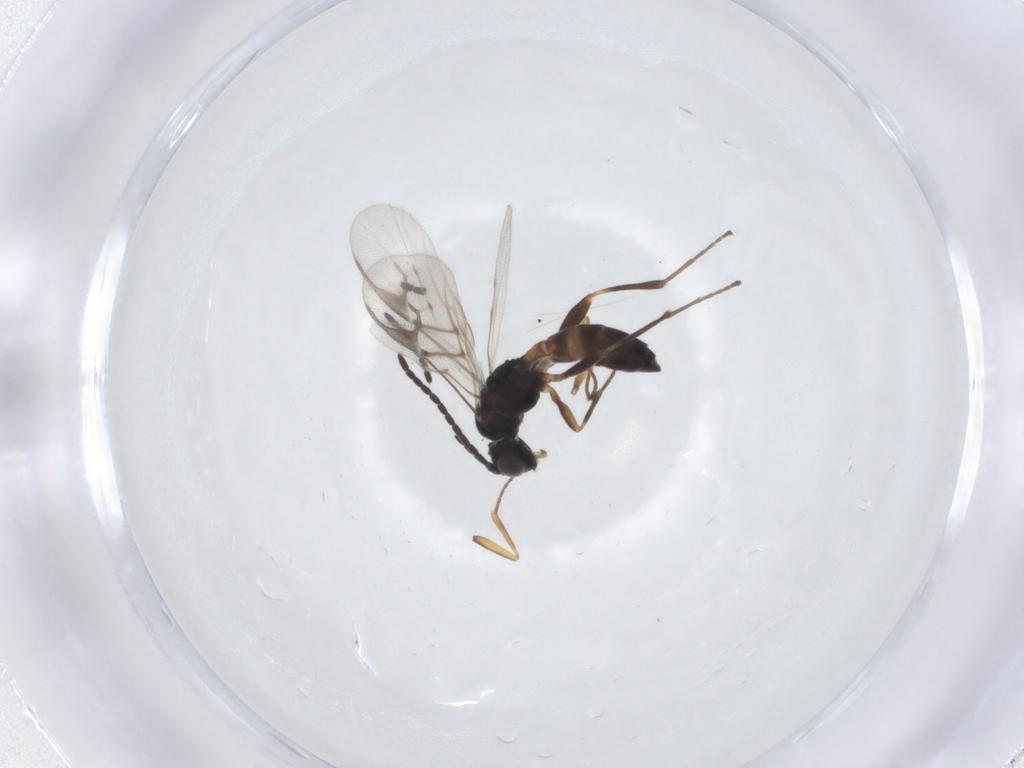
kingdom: Animalia
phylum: Arthropoda
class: Insecta
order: Hymenoptera
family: Braconidae
